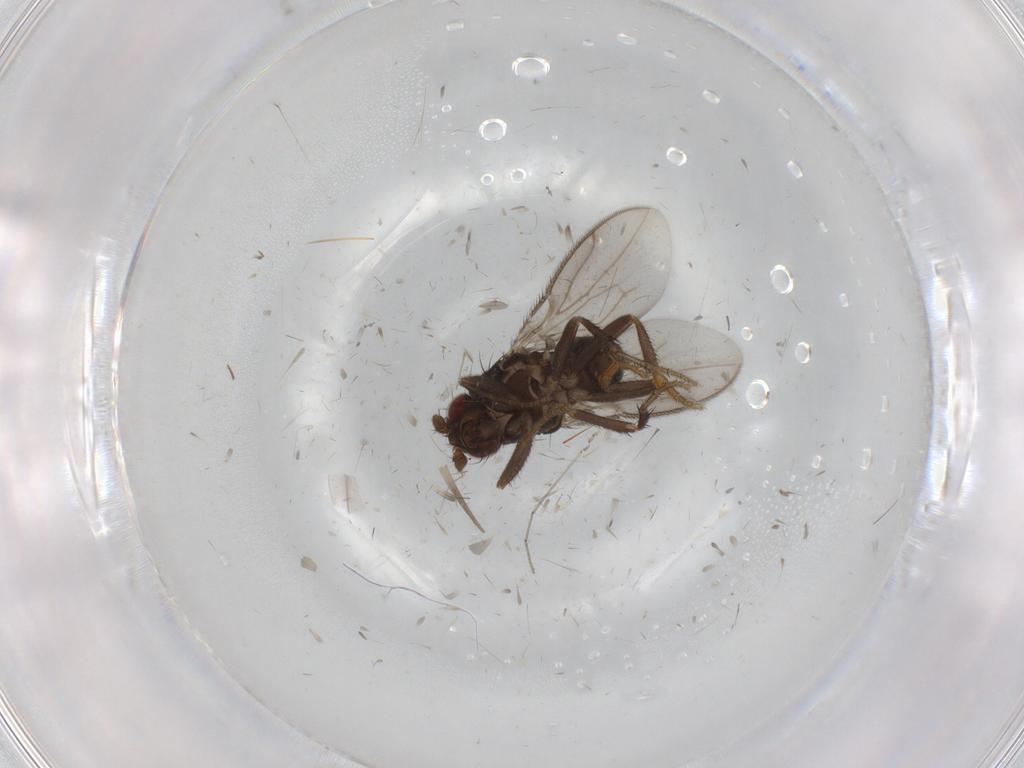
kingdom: Animalia
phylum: Arthropoda
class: Insecta
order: Diptera
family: Sphaeroceridae
